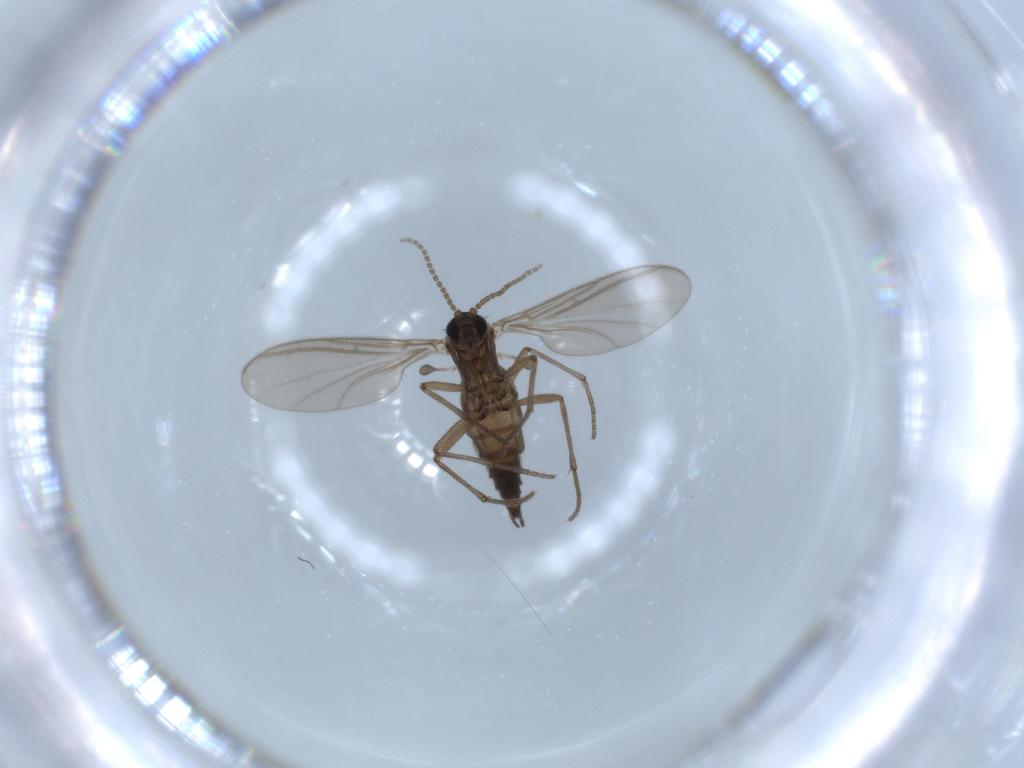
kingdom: Animalia
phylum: Arthropoda
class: Insecta
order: Diptera
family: Sciaridae
